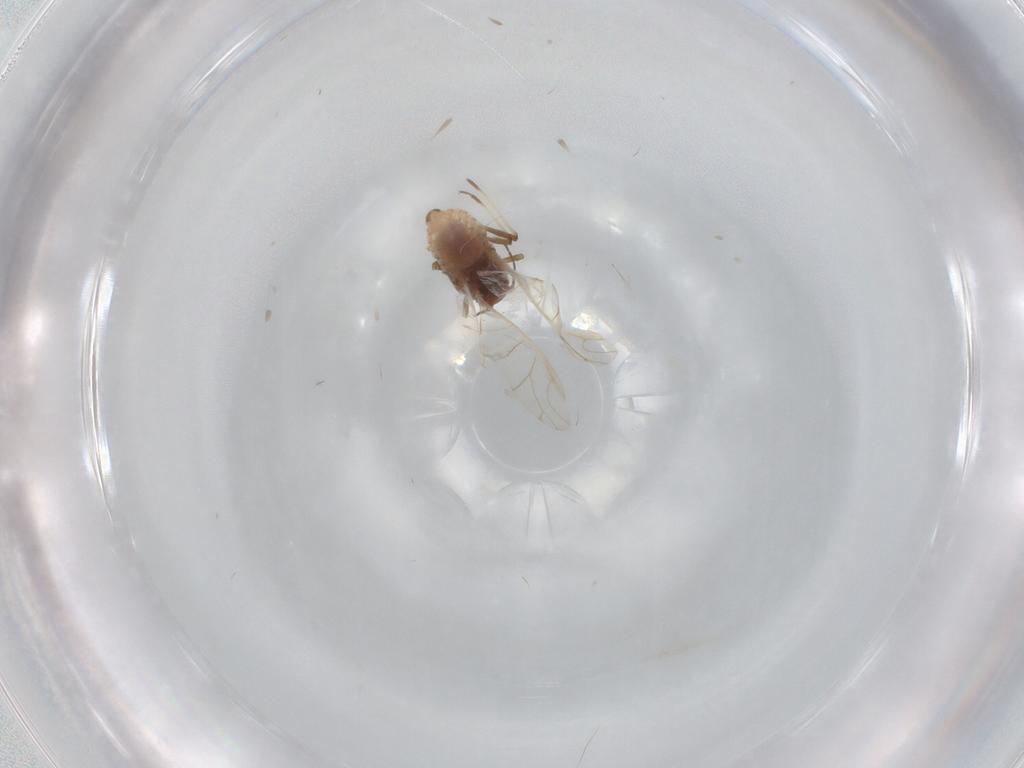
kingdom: Animalia
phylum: Arthropoda
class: Insecta
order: Hemiptera
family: Aphididae
